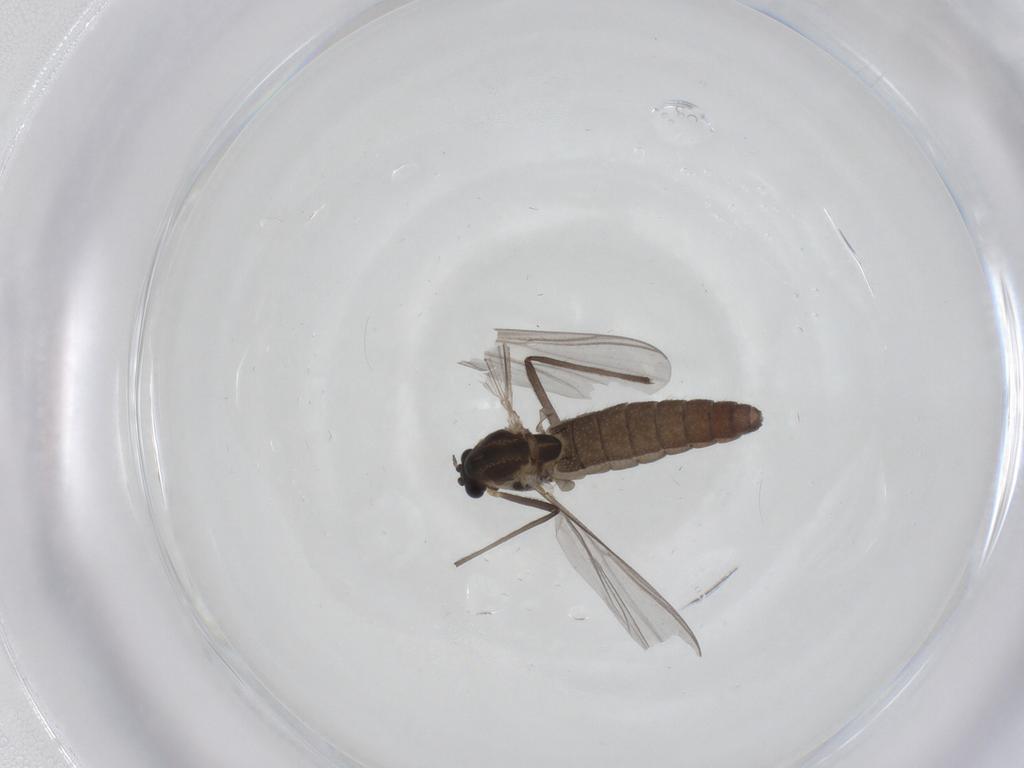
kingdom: Animalia
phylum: Arthropoda
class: Insecta
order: Diptera
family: Chironomidae
